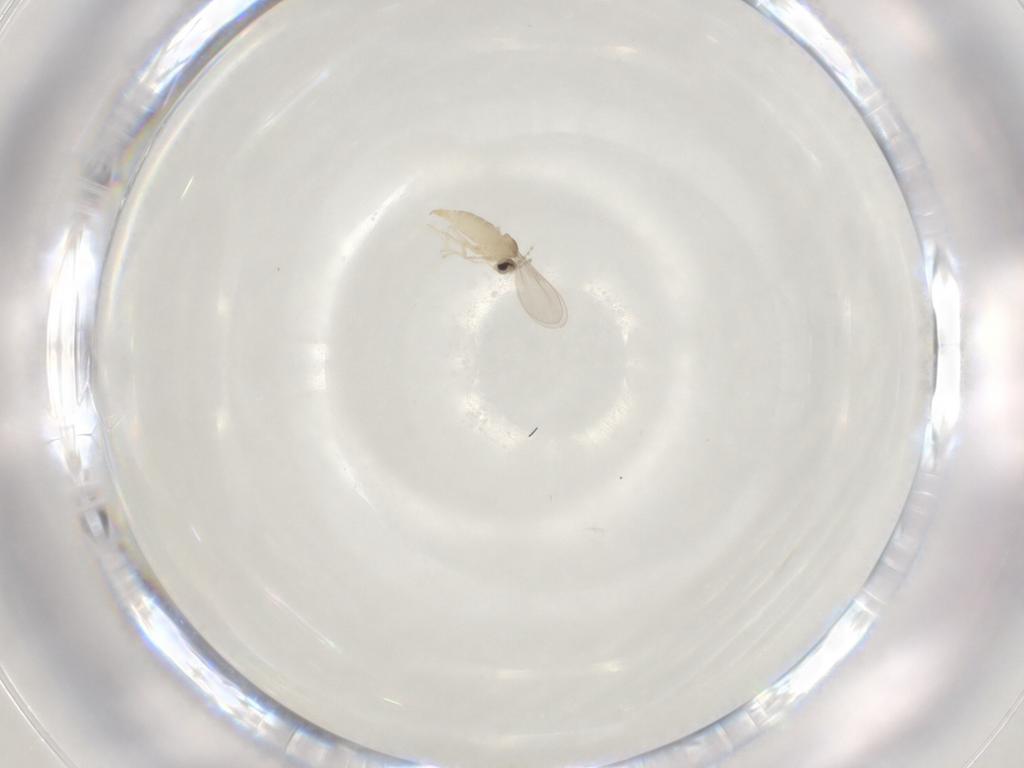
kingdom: Animalia
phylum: Arthropoda
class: Insecta
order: Diptera
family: Cecidomyiidae
